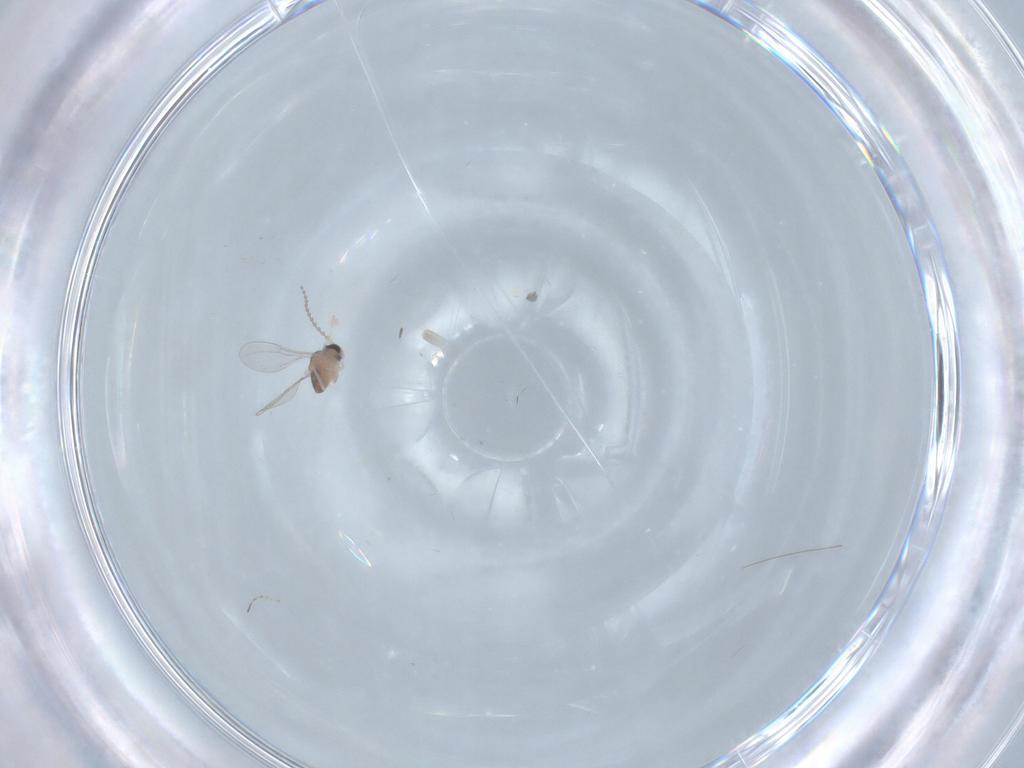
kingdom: Animalia
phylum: Arthropoda
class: Insecta
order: Diptera
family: Chironomidae
